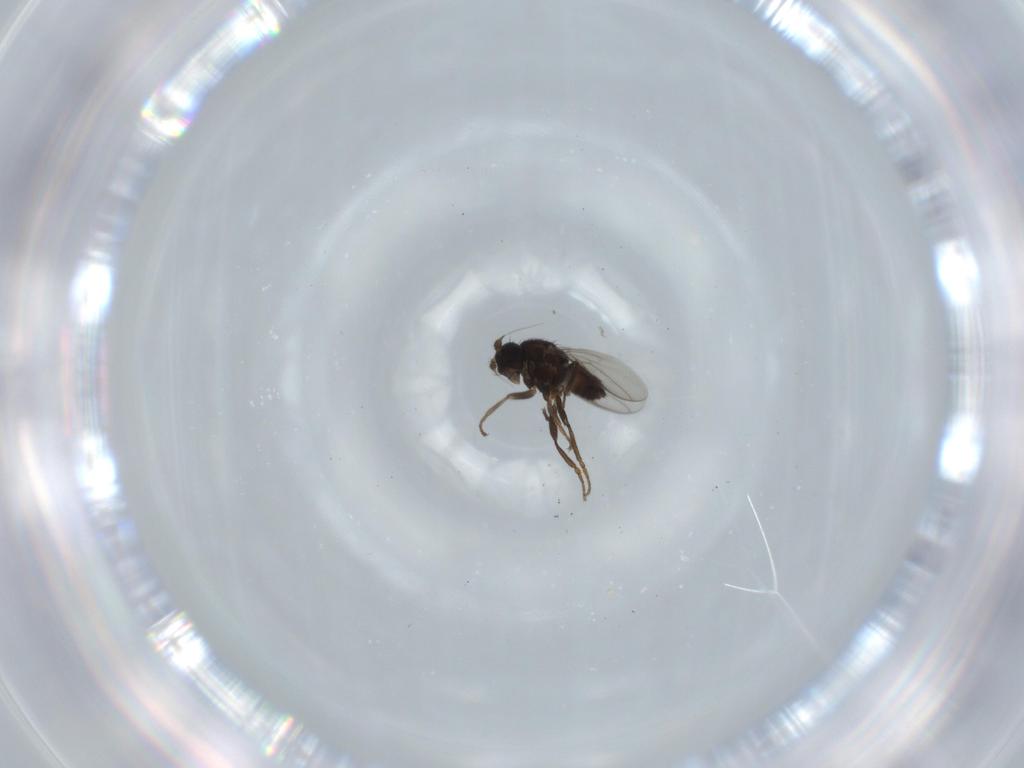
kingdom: Animalia
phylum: Arthropoda
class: Insecta
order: Diptera
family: Sphaeroceridae
